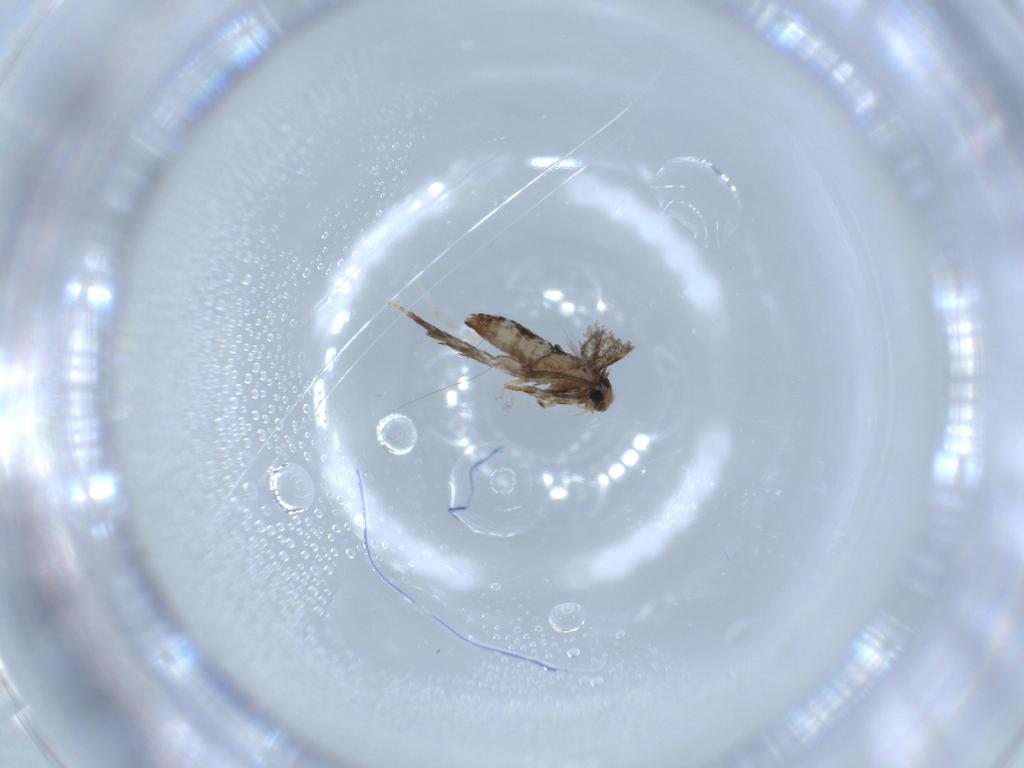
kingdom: Animalia
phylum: Arthropoda
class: Insecta
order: Lepidoptera
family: Nepticulidae
